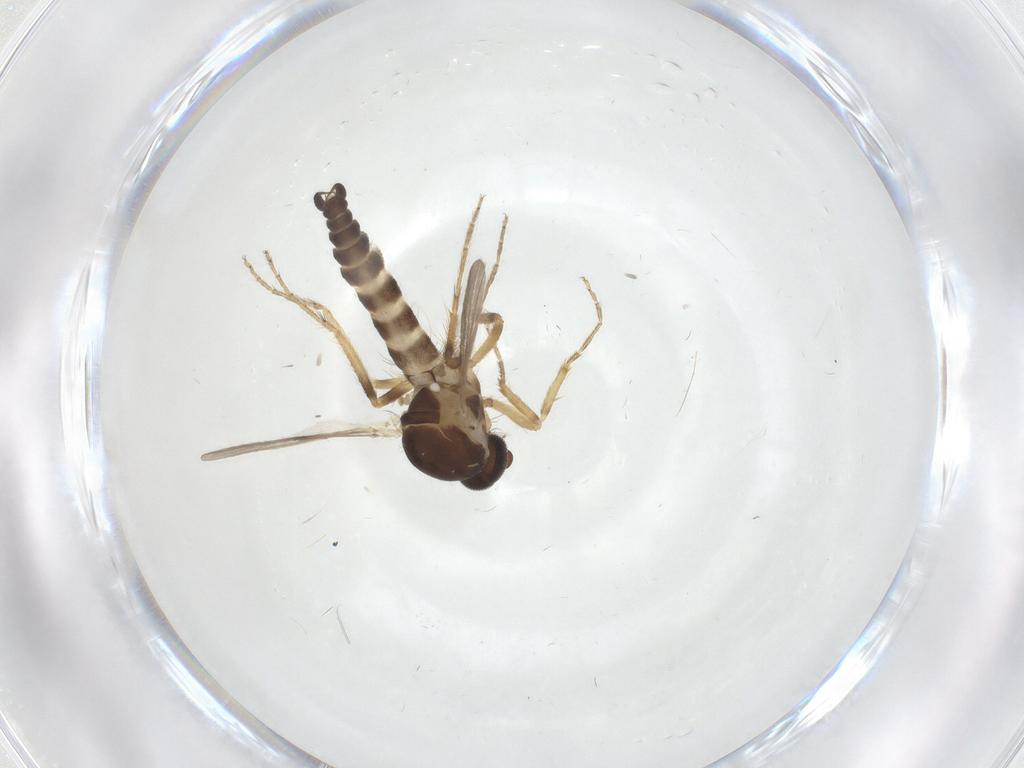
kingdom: Animalia
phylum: Arthropoda
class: Insecta
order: Diptera
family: Ceratopogonidae
